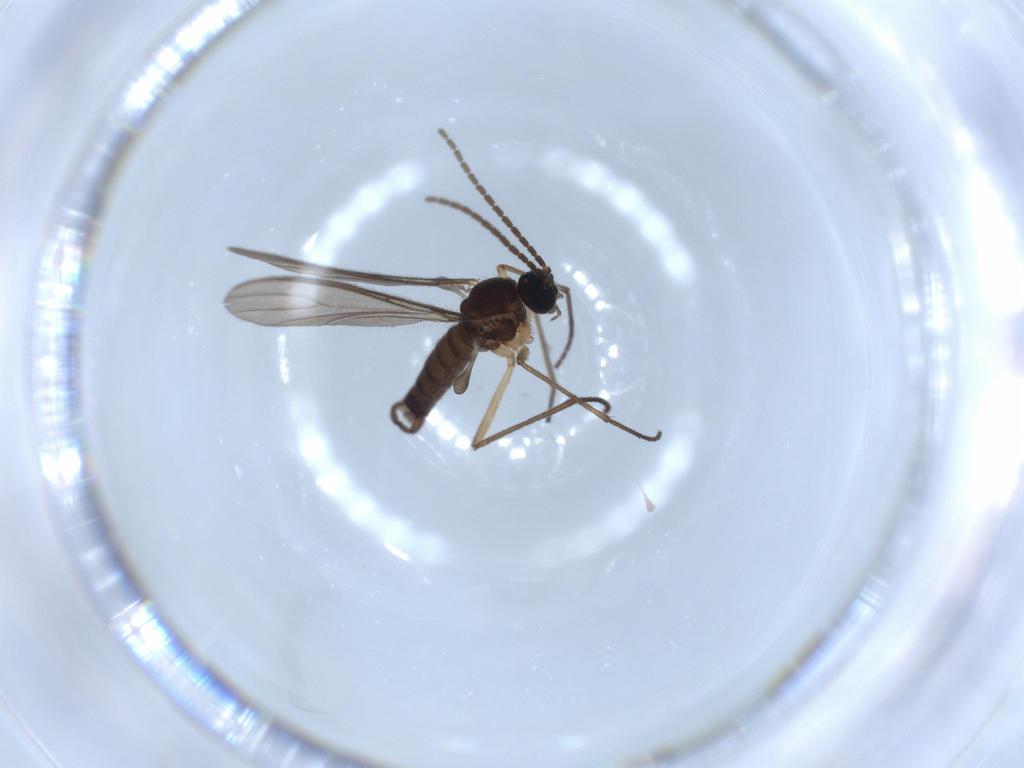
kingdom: Animalia
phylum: Arthropoda
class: Insecta
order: Diptera
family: Sciaridae
